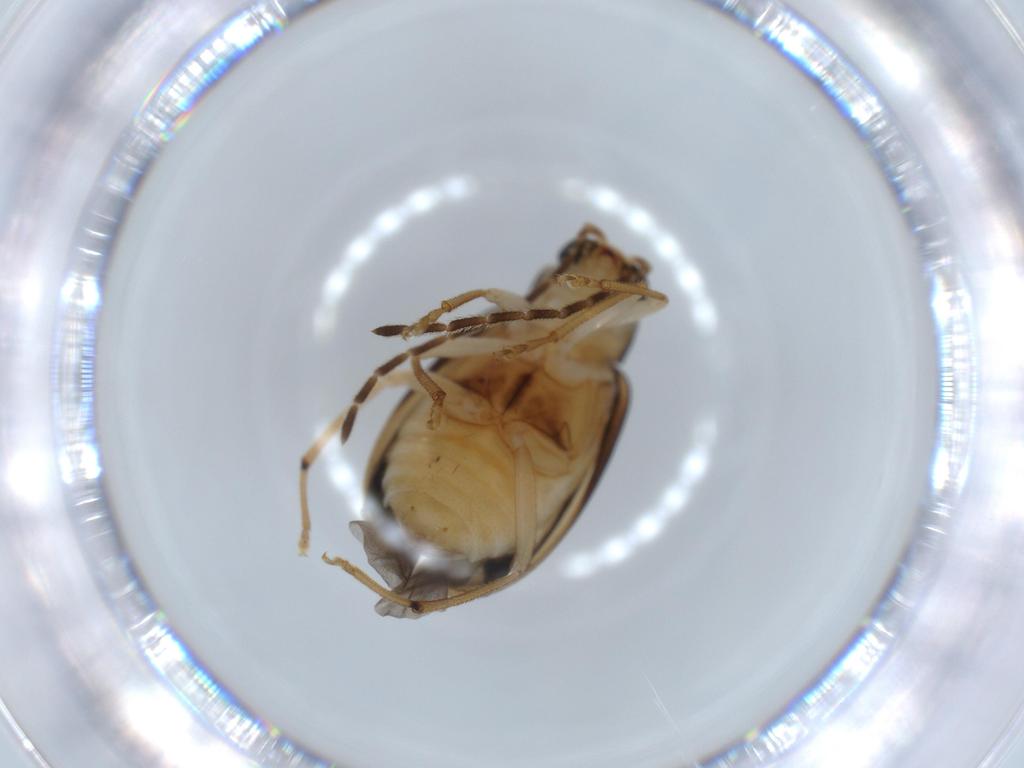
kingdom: Animalia
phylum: Arthropoda
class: Insecta
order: Coleoptera
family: Chrysomelidae
